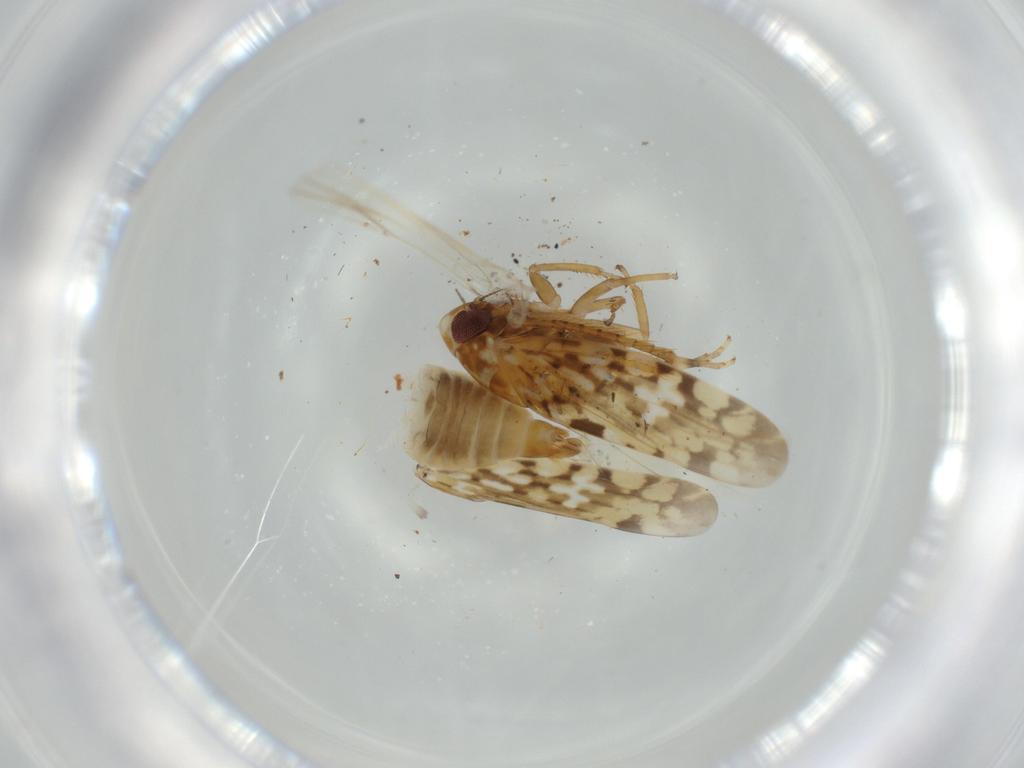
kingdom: Animalia
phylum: Arthropoda
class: Insecta
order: Hemiptera
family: Cicadellidae
